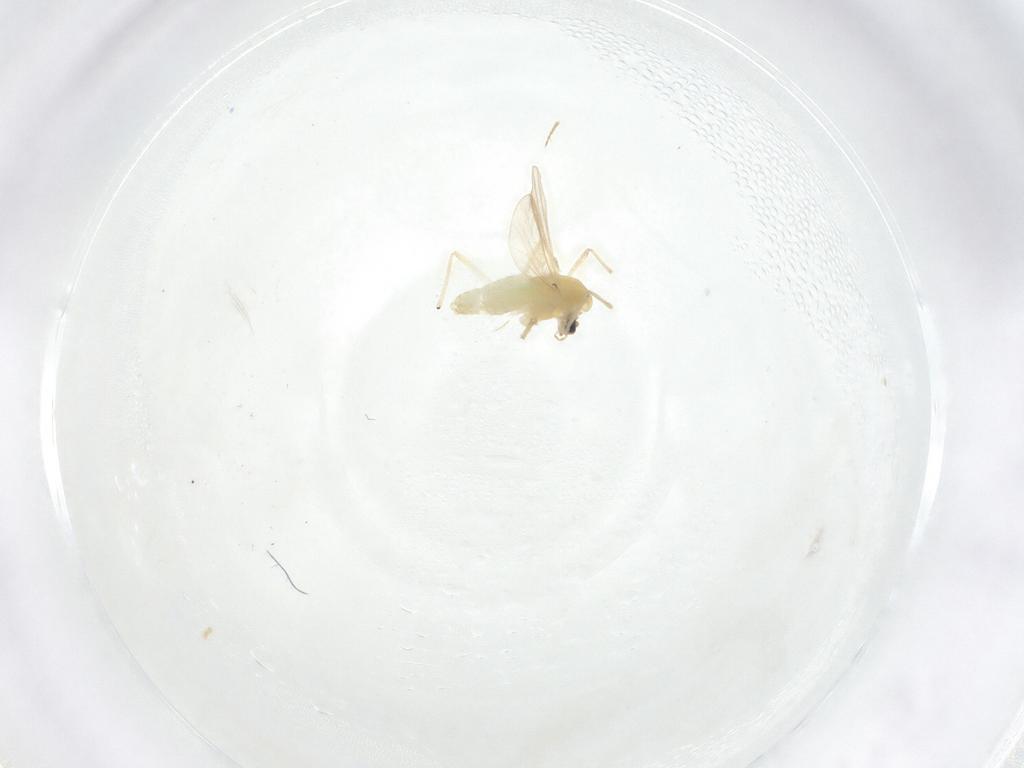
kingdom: Animalia
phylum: Arthropoda
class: Insecta
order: Diptera
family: Chironomidae
